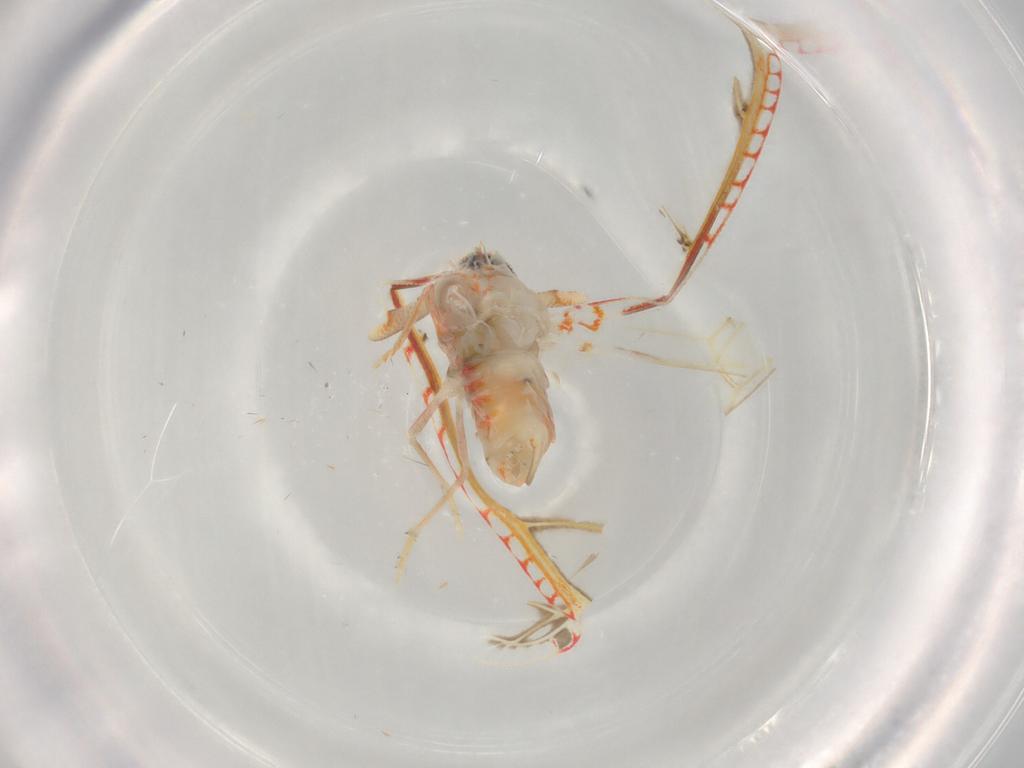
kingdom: Animalia
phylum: Arthropoda
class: Insecta
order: Hemiptera
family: Derbidae
